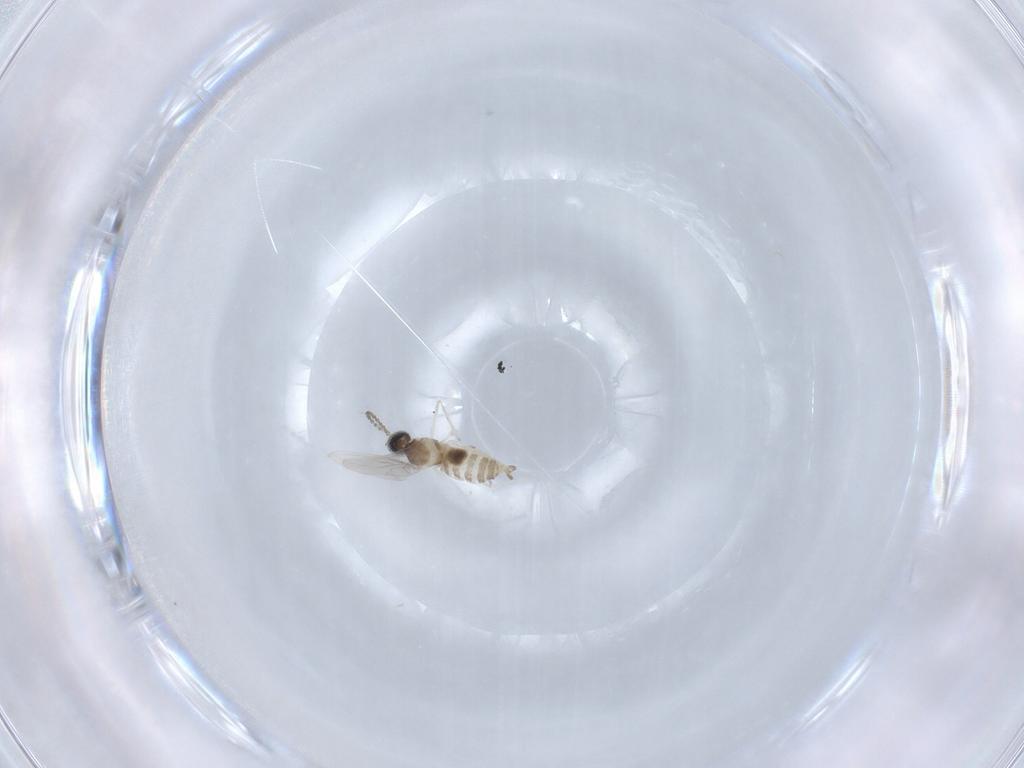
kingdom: Animalia
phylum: Arthropoda
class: Insecta
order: Diptera
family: Cecidomyiidae
